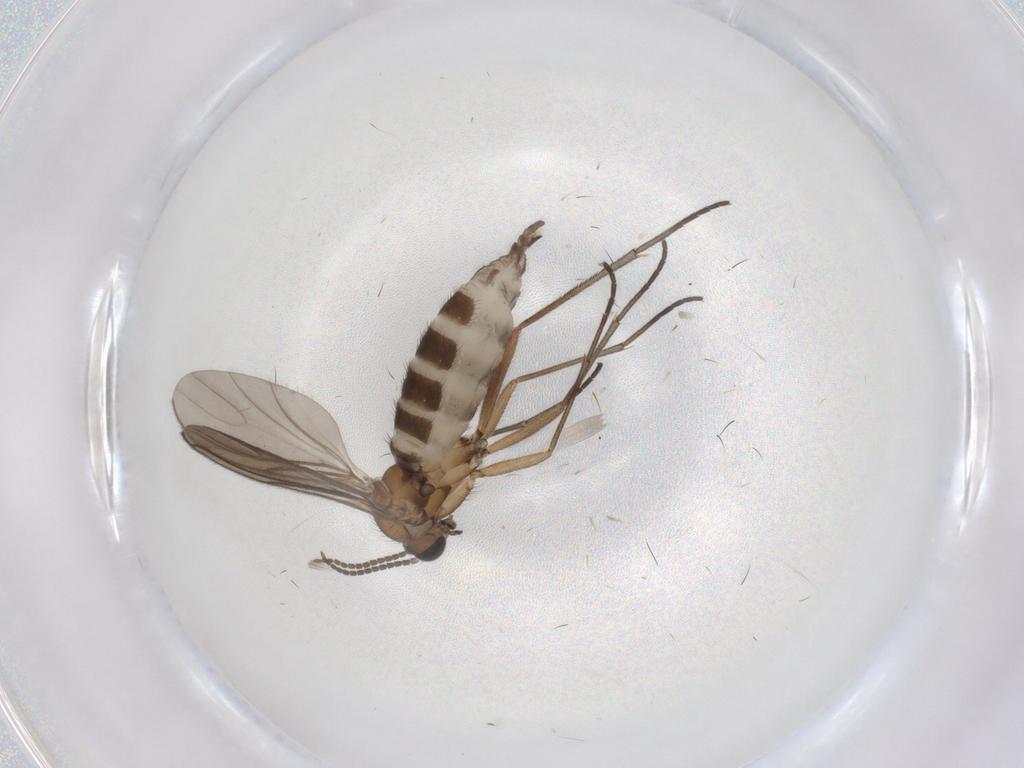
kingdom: Animalia
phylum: Arthropoda
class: Insecta
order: Diptera
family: Sciaridae
